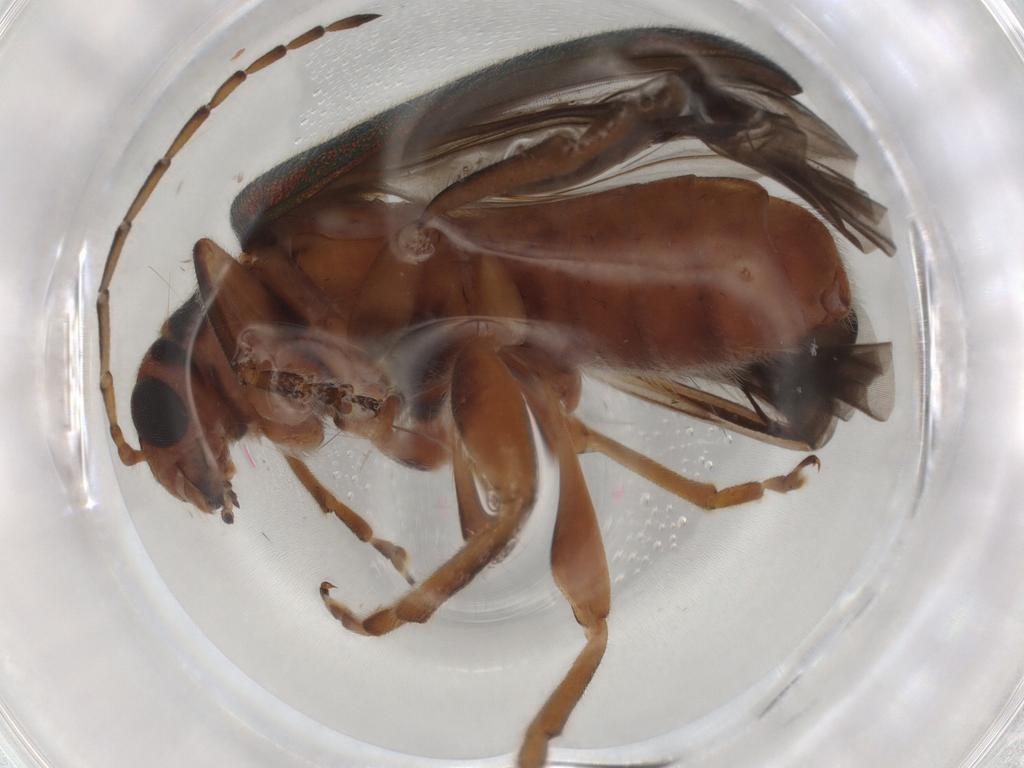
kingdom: Animalia
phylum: Arthropoda
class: Insecta
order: Coleoptera
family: Chrysomelidae
